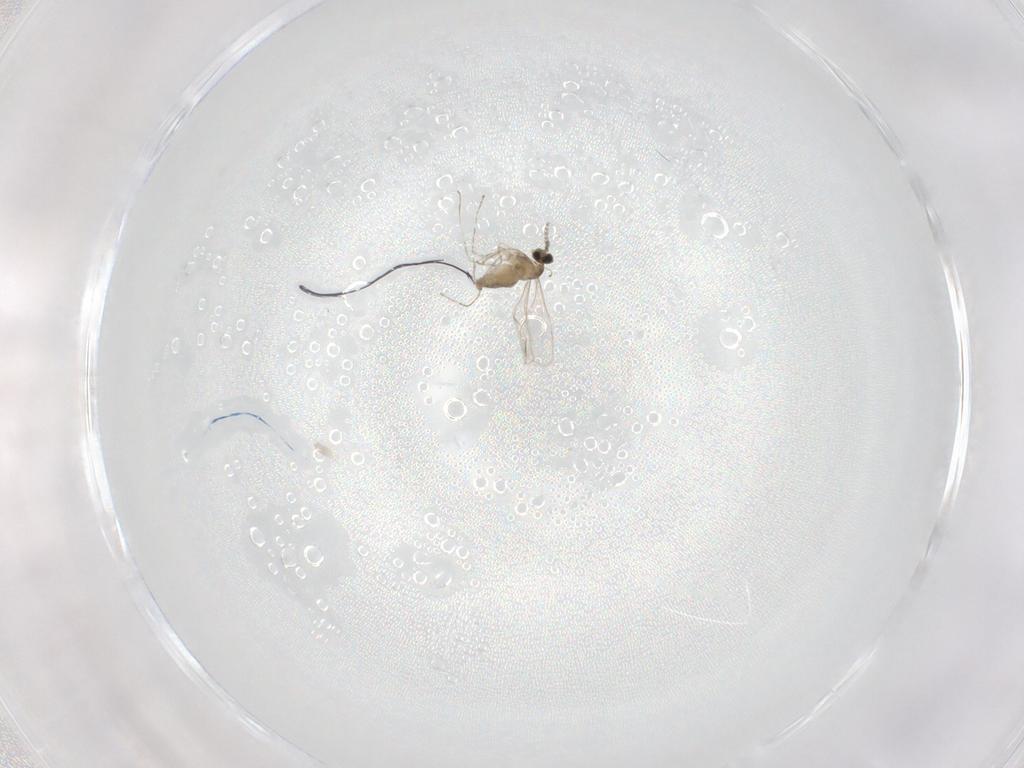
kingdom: Animalia
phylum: Arthropoda
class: Insecta
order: Diptera
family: Cecidomyiidae
